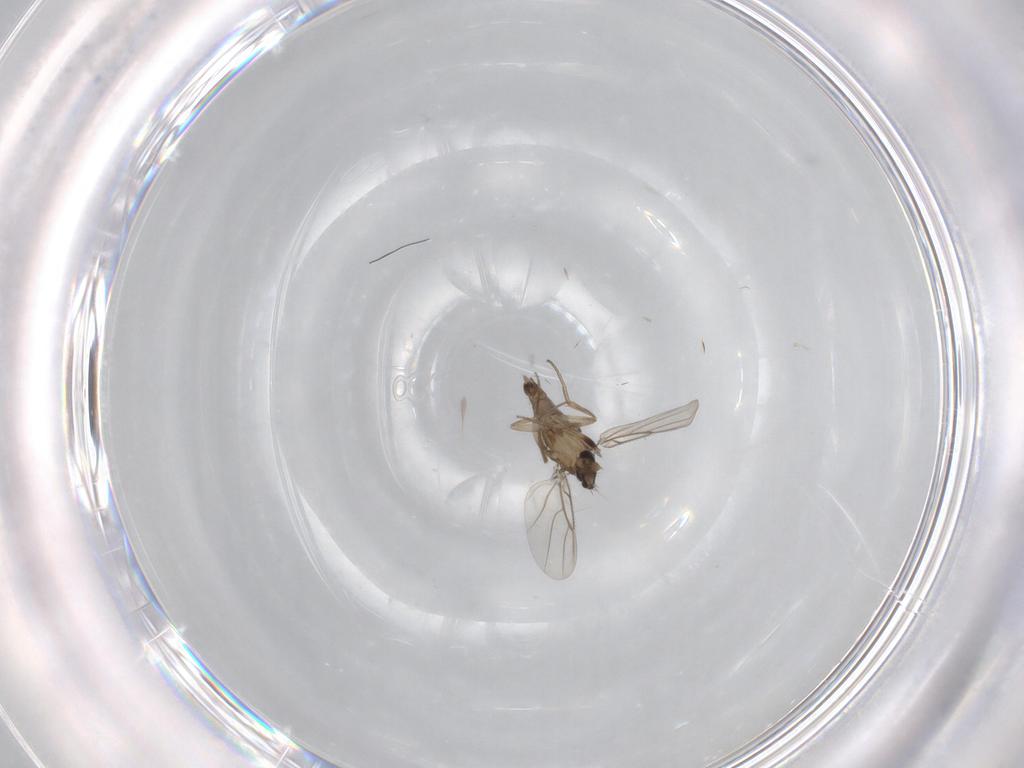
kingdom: Animalia
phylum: Arthropoda
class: Insecta
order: Diptera
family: Phoridae
